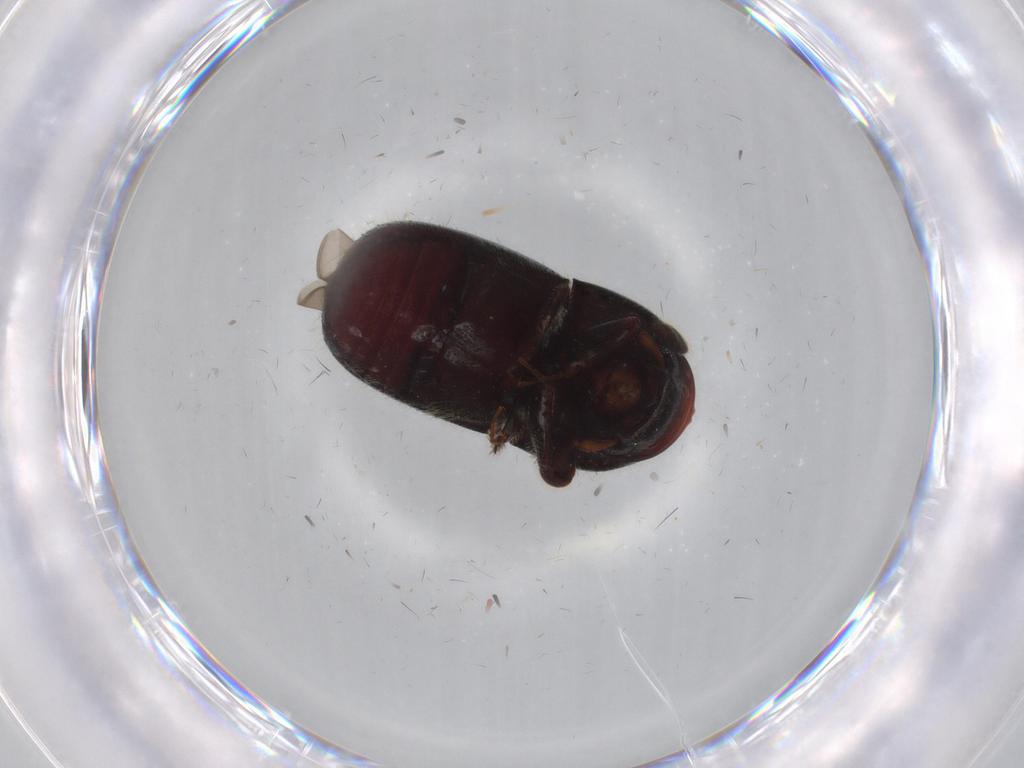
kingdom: Animalia
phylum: Arthropoda
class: Insecta
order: Coleoptera
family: Curculionidae
